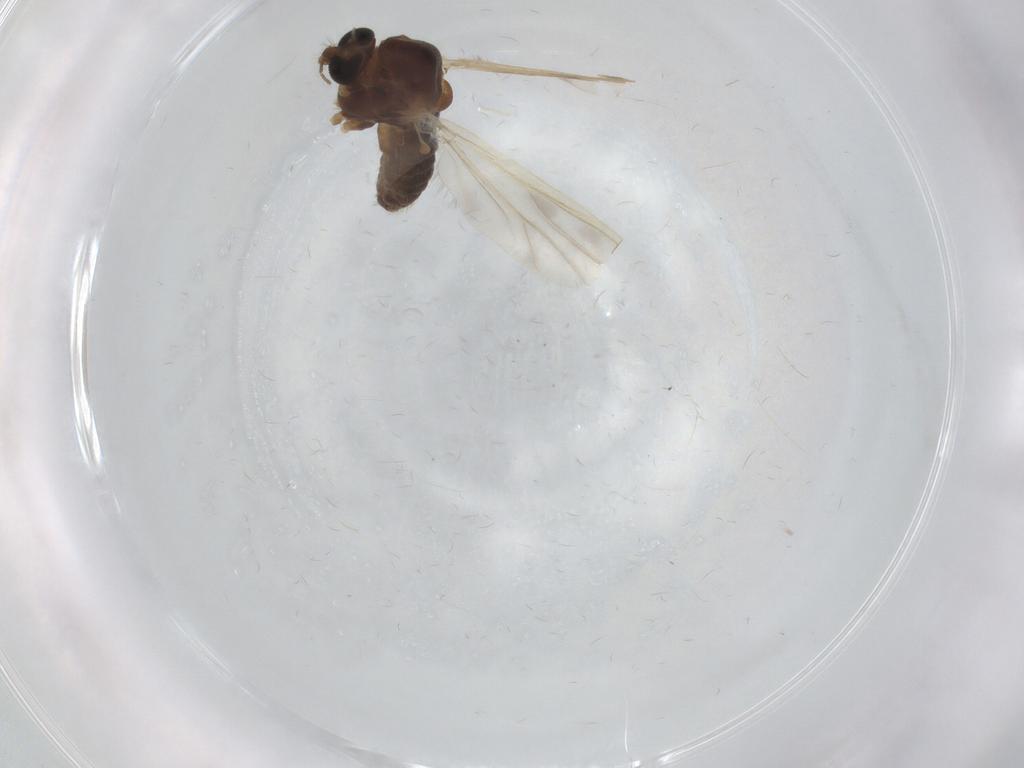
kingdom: Animalia
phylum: Arthropoda
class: Insecta
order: Diptera
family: Chironomidae
